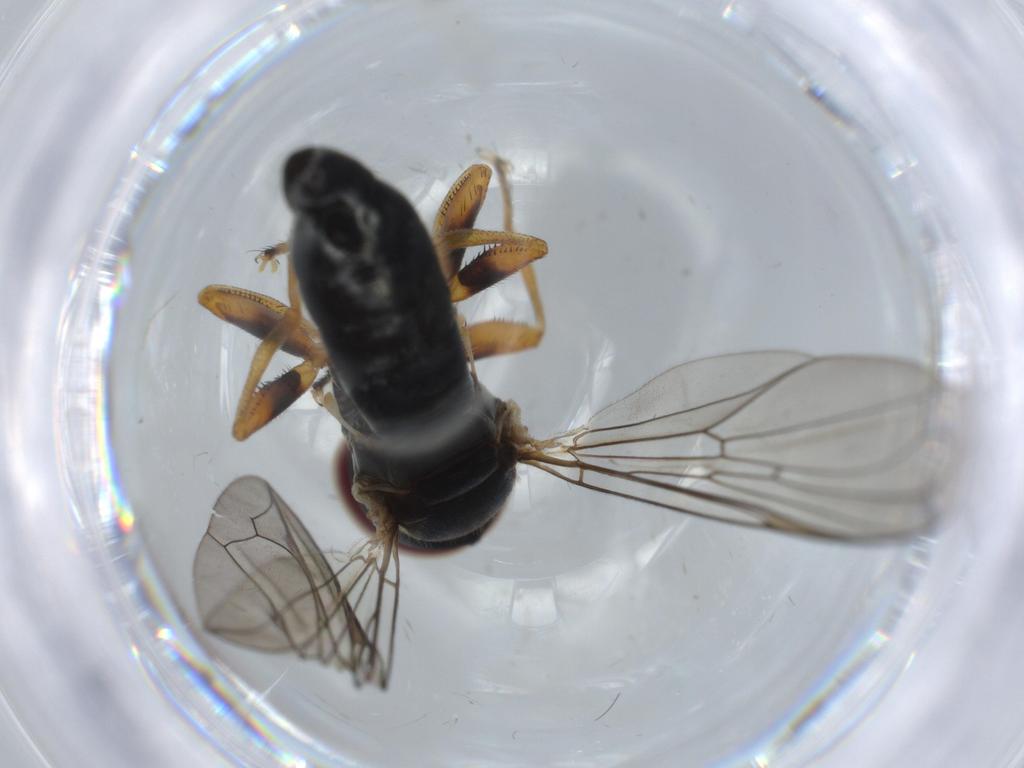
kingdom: Animalia
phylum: Arthropoda
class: Insecta
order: Diptera
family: Pipunculidae
